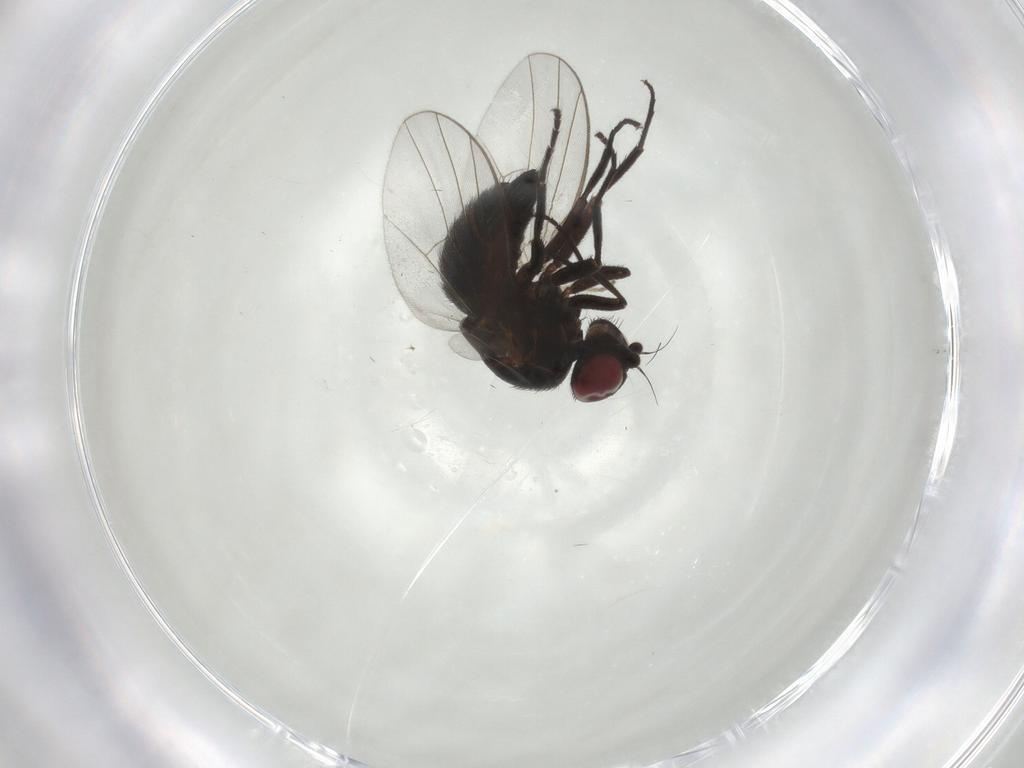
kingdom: Animalia
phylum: Arthropoda
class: Insecta
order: Diptera
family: Agromyzidae
